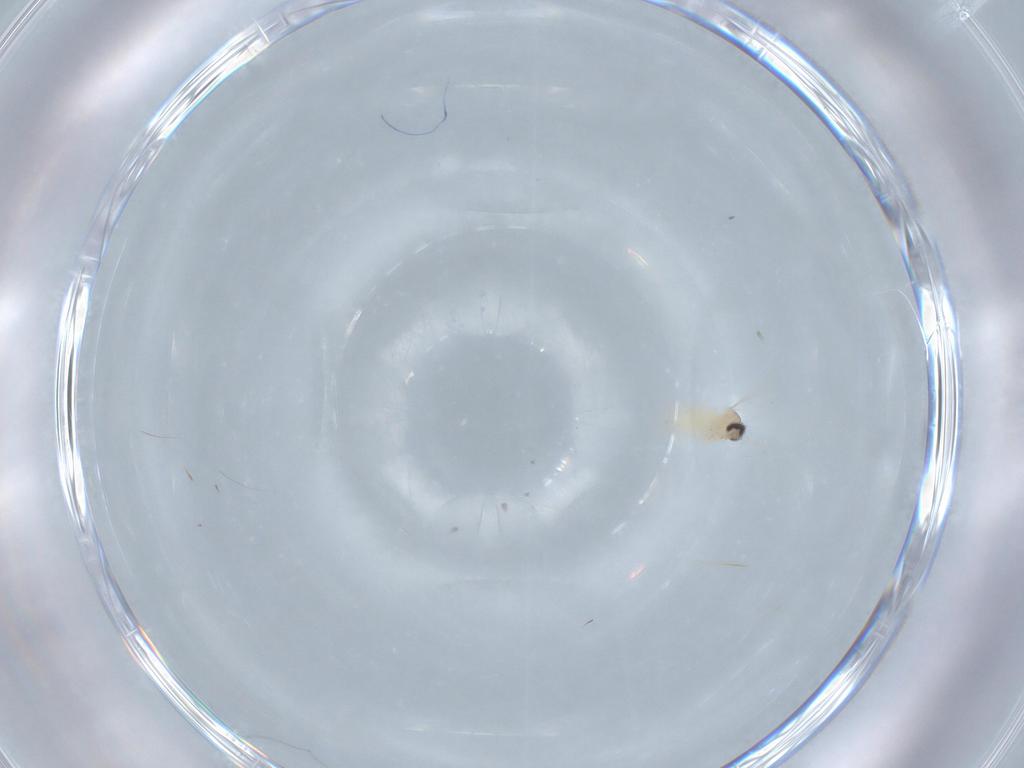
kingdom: Animalia
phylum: Arthropoda
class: Insecta
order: Diptera
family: Cecidomyiidae
